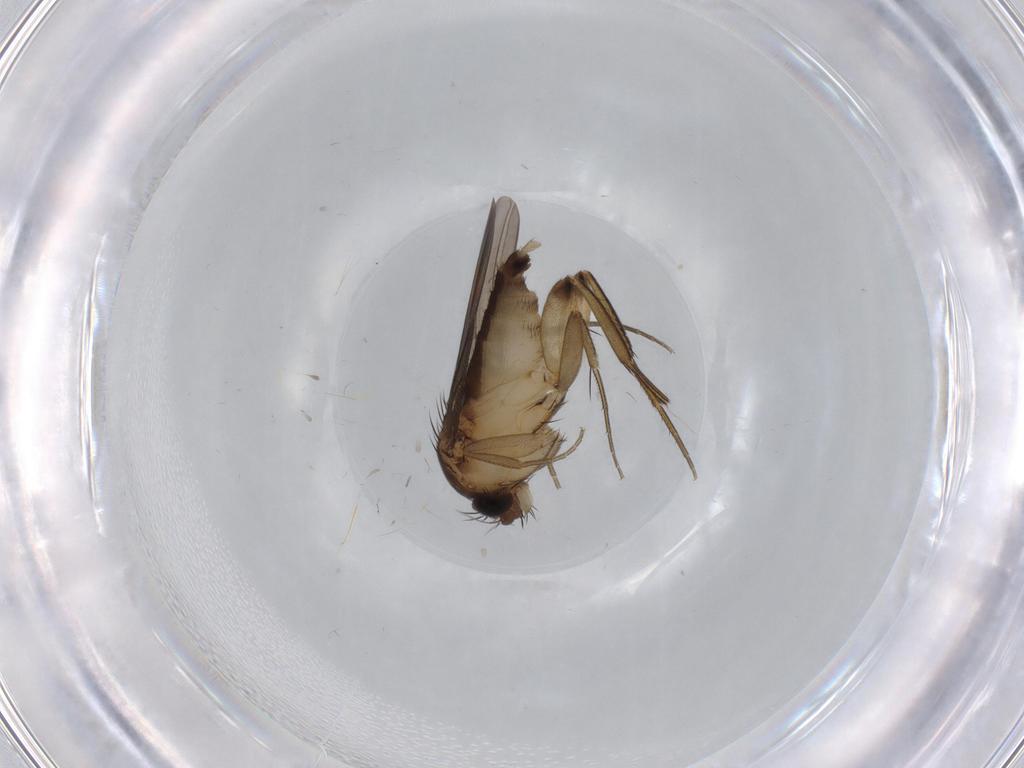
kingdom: Animalia
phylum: Arthropoda
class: Insecta
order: Diptera
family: Phoridae
